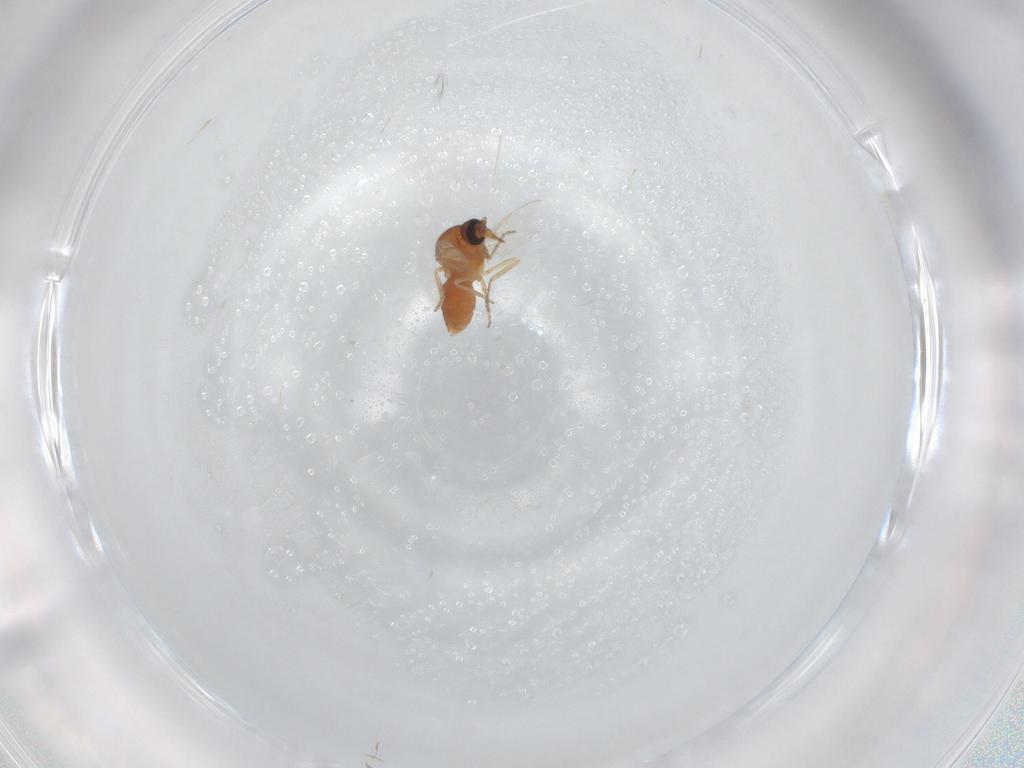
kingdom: Animalia
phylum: Arthropoda
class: Insecta
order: Diptera
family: Ceratopogonidae
